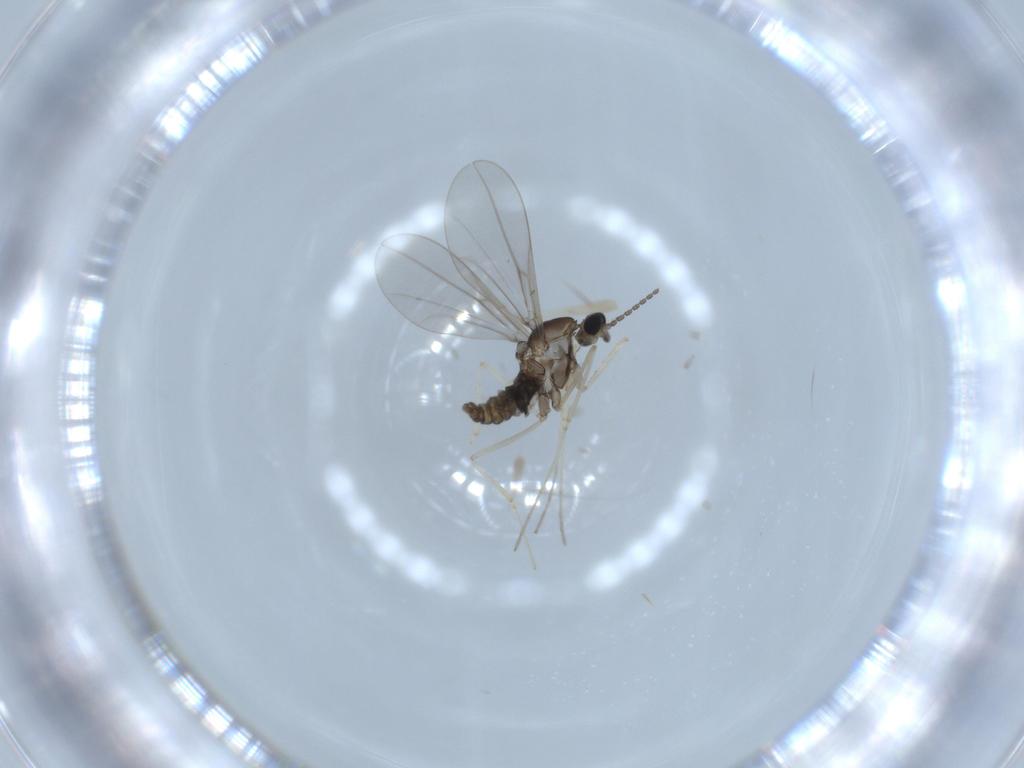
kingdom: Animalia
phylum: Arthropoda
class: Insecta
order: Diptera
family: Cecidomyiidae
